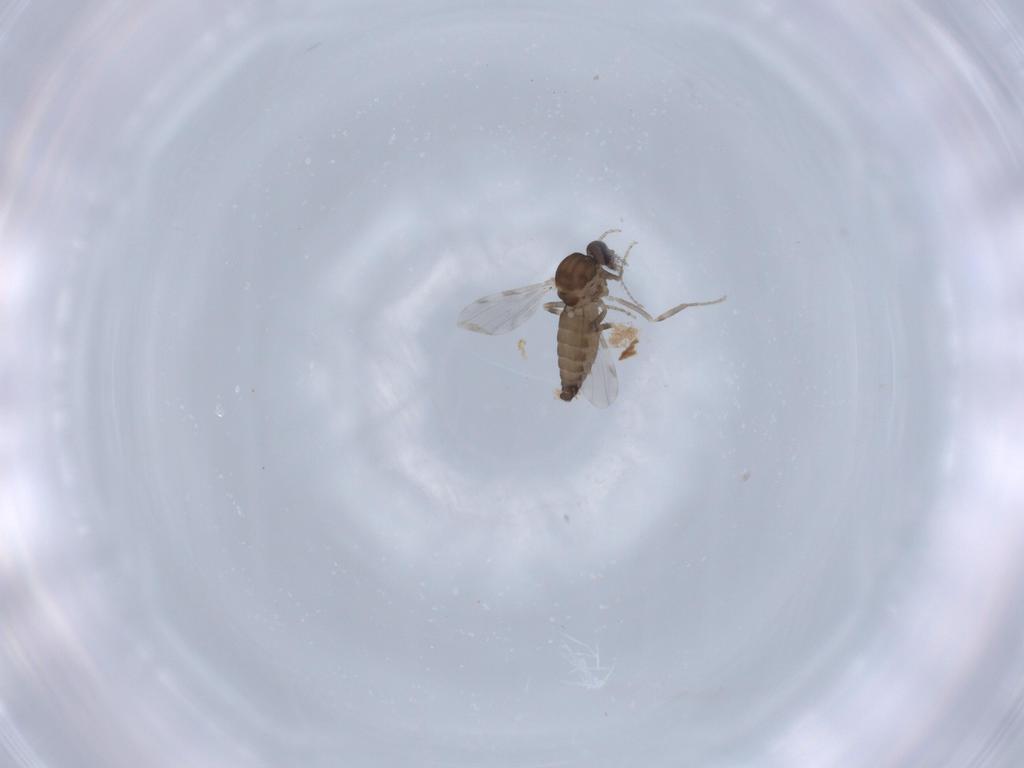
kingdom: Animalia
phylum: Arthropoda
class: Insecta
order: Diptera
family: Ceratopogonidae
